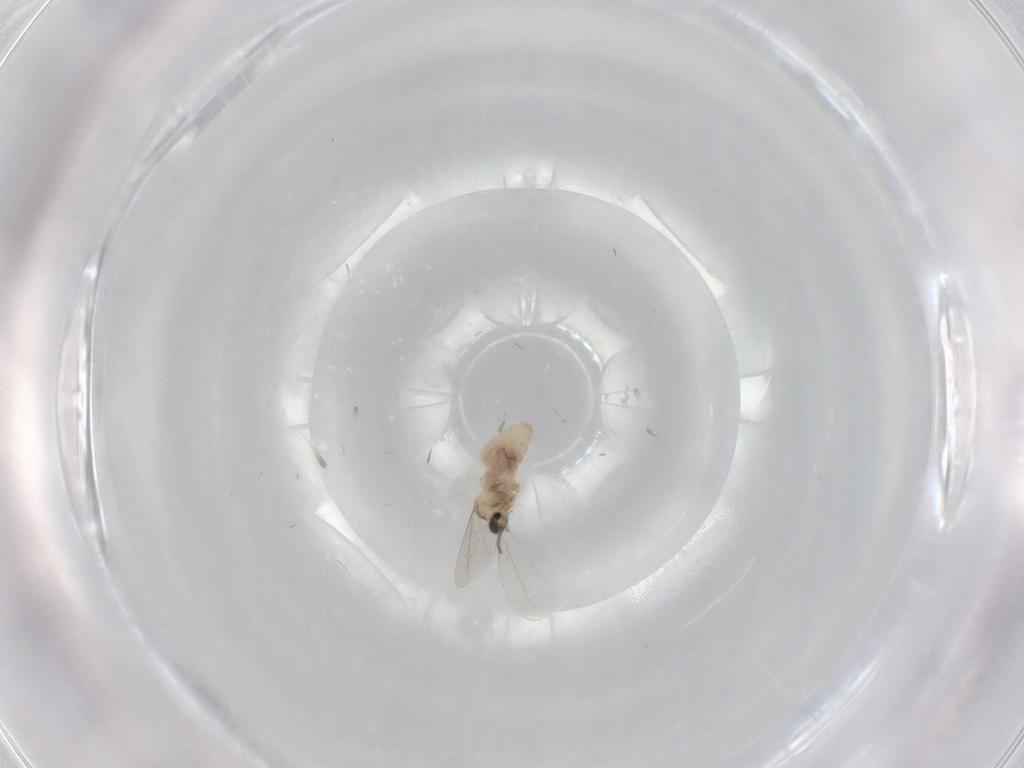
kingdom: Animalia
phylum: Arthropoda
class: Insecta
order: Diptera
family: Cecidomyiidae
